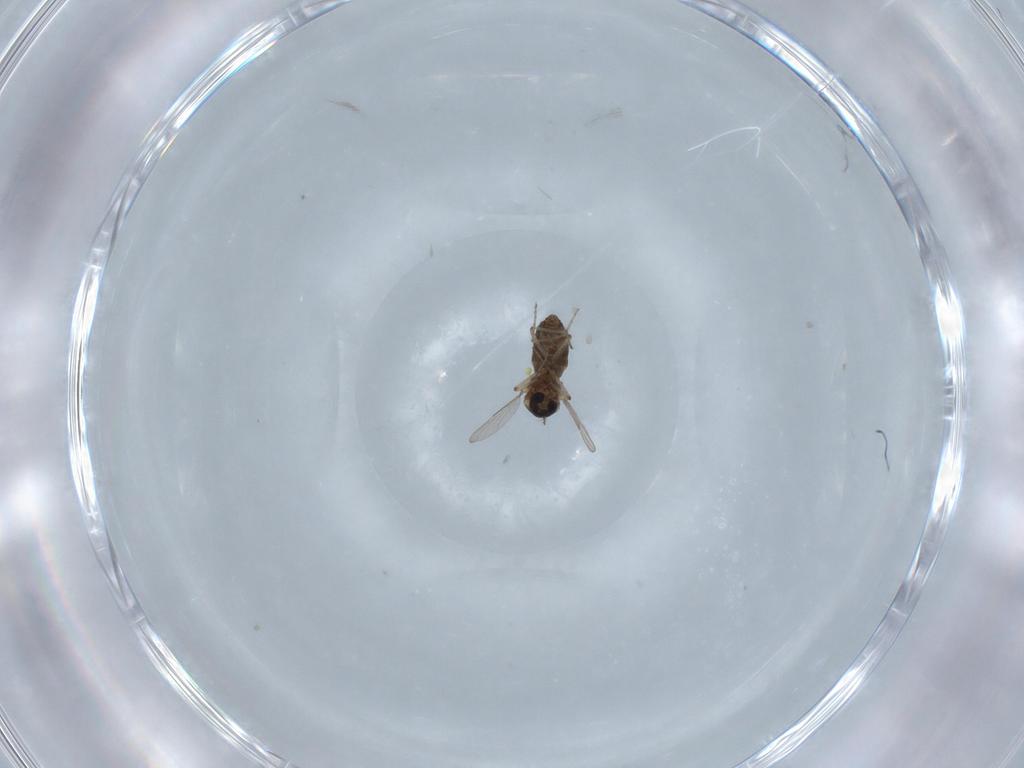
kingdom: Animalia
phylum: Arthropoda
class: Insecta
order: Diptera
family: Ceratopogonidae
